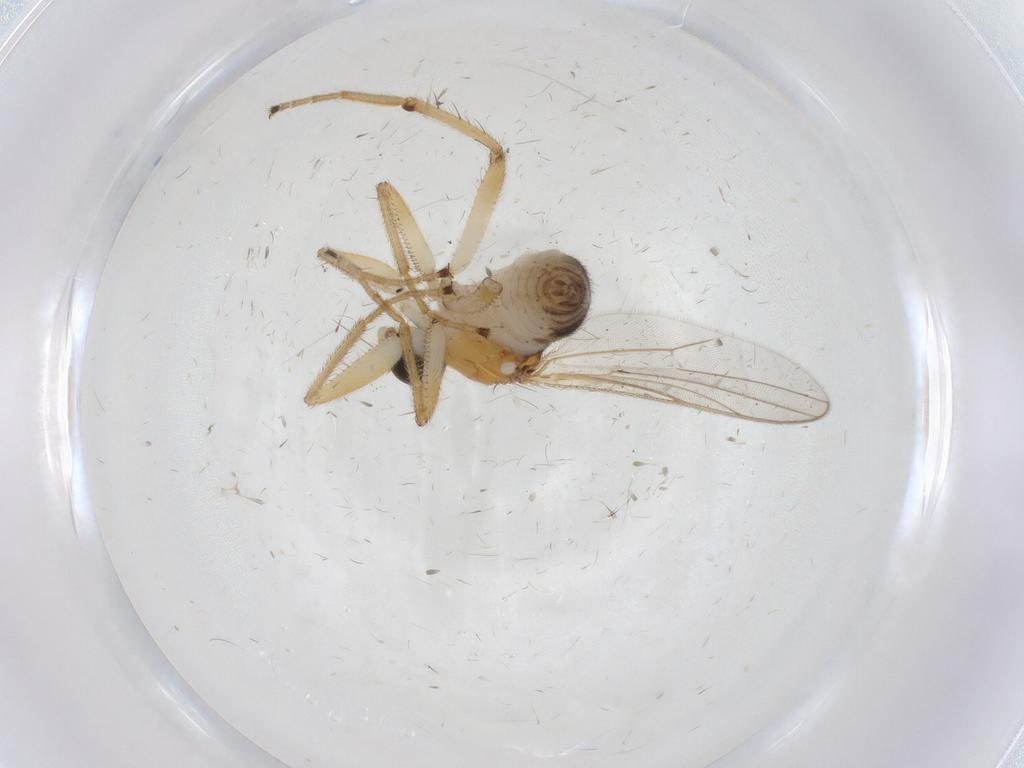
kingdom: Animalia
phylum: Arthropoda
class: Insecta
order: Diptera
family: Hybotidae
